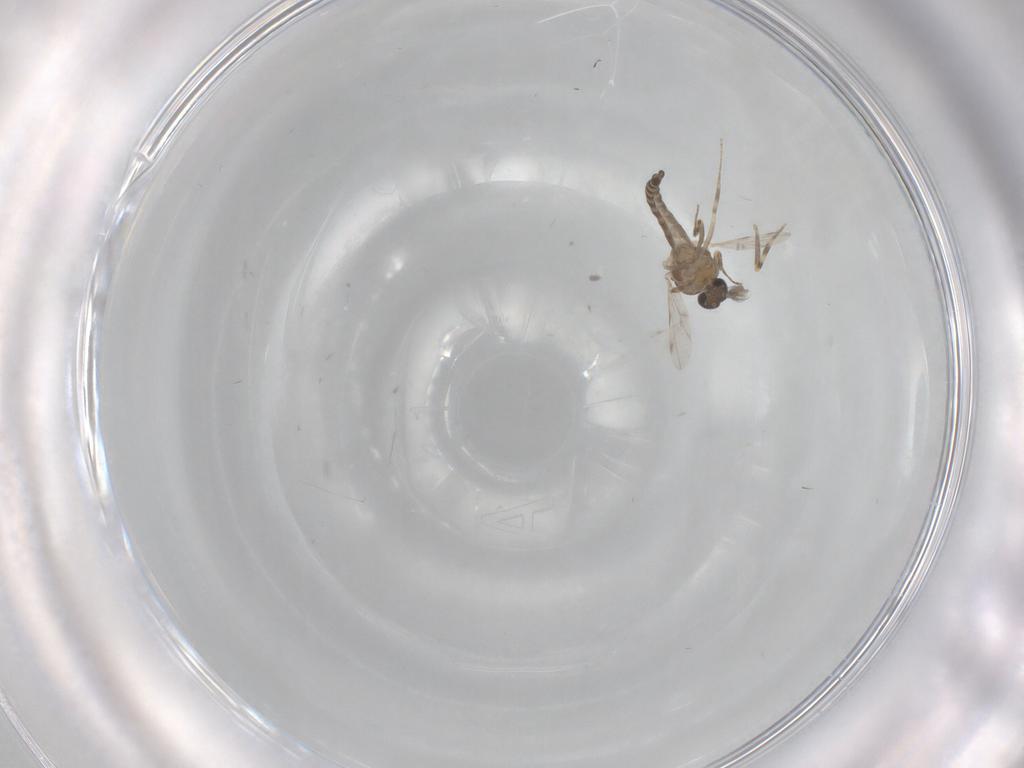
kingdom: Animalia
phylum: Arthropoda
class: Insecta
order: Diptera
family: Ceratopogonidae
